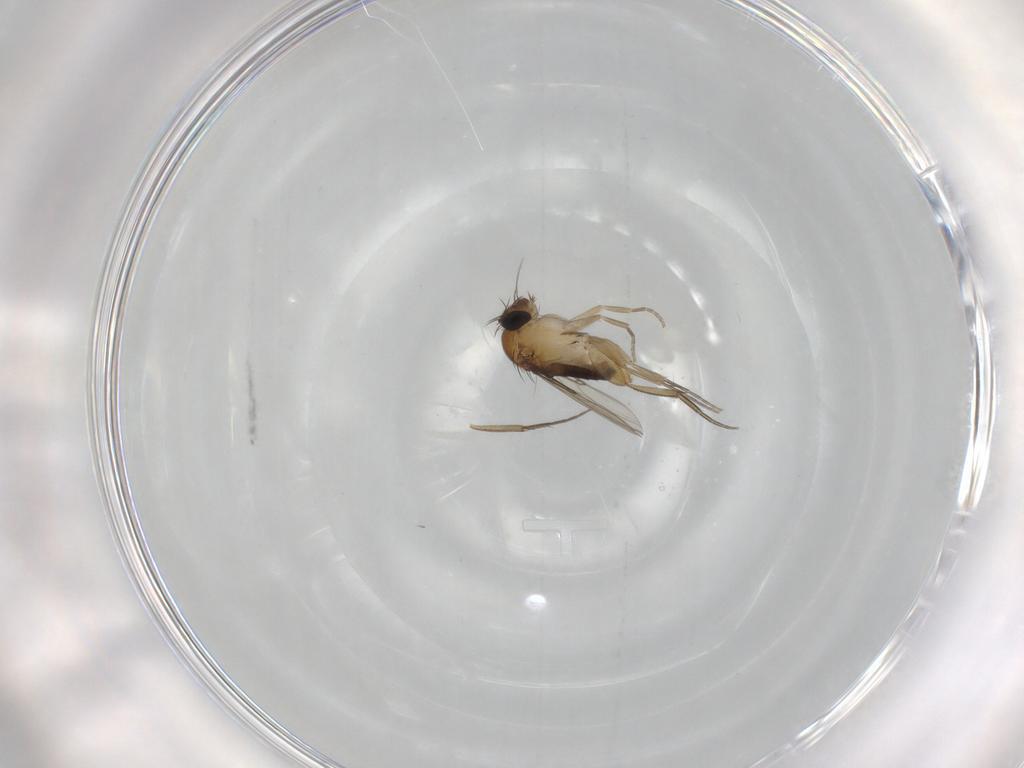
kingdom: Animalia
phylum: Arthropoda
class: Insecta
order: Diptera
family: Phoridae
